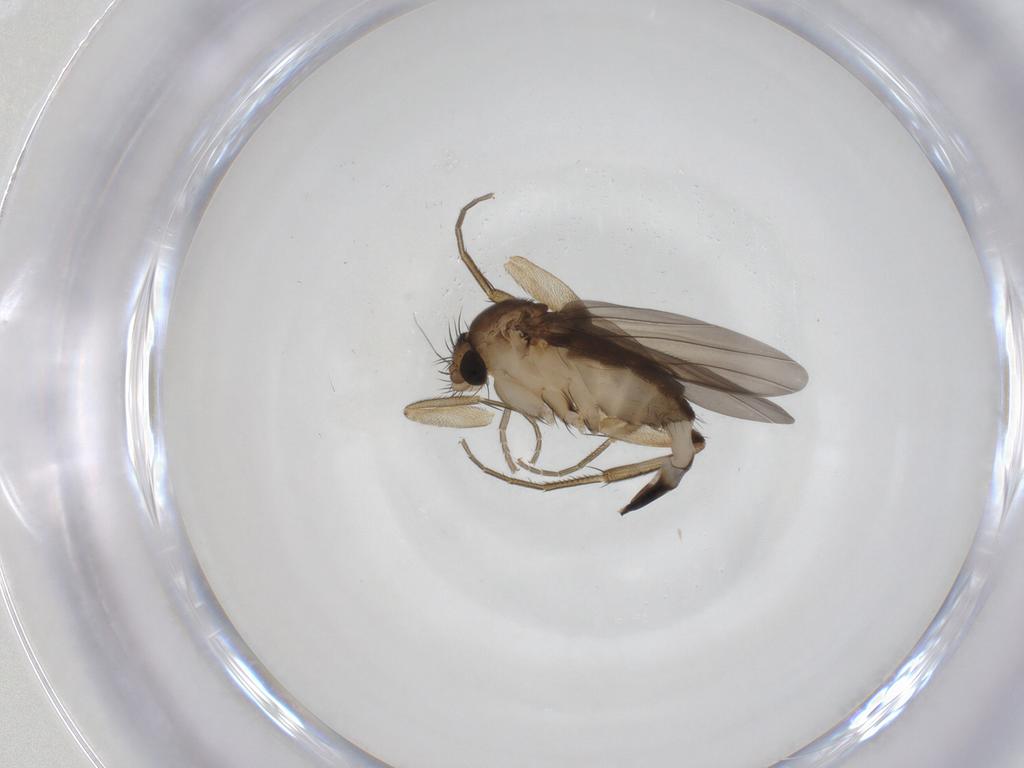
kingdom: Animalia
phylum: Arthropoda
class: Insecta
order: Diptera
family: Phoridae
